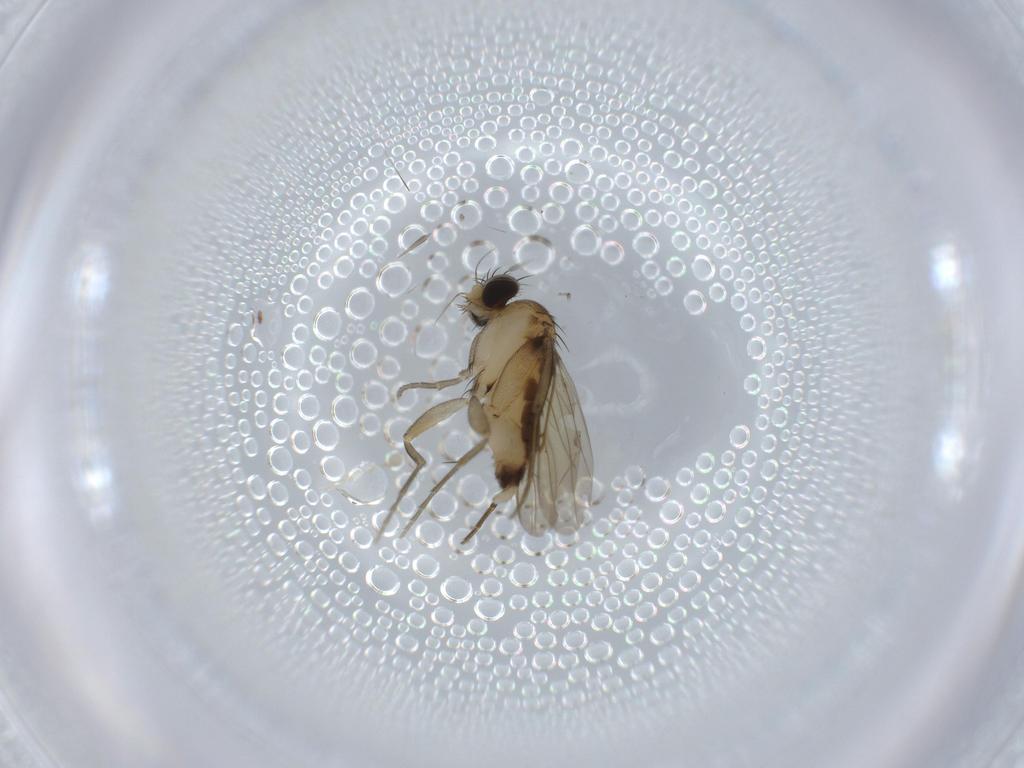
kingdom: Animalia
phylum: Arthropoda
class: Insecta
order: Diptera
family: Phoridae
